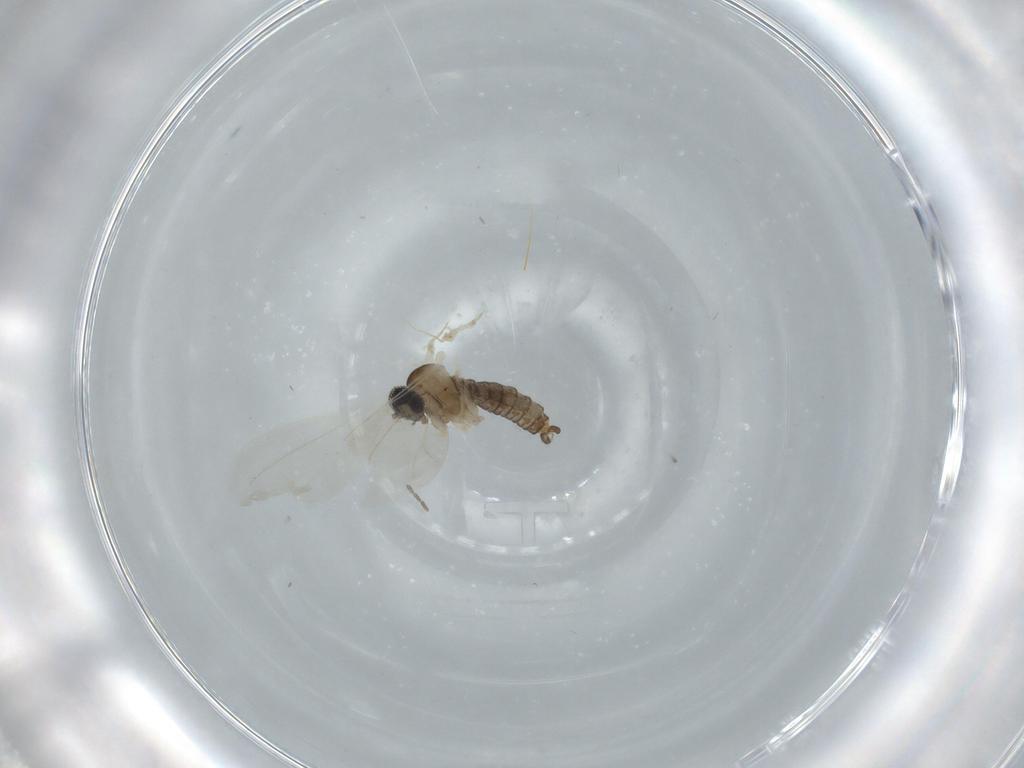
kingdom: Animalia
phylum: Arthropoda
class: Insecta
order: Diptera
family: Cecidomyiidae
